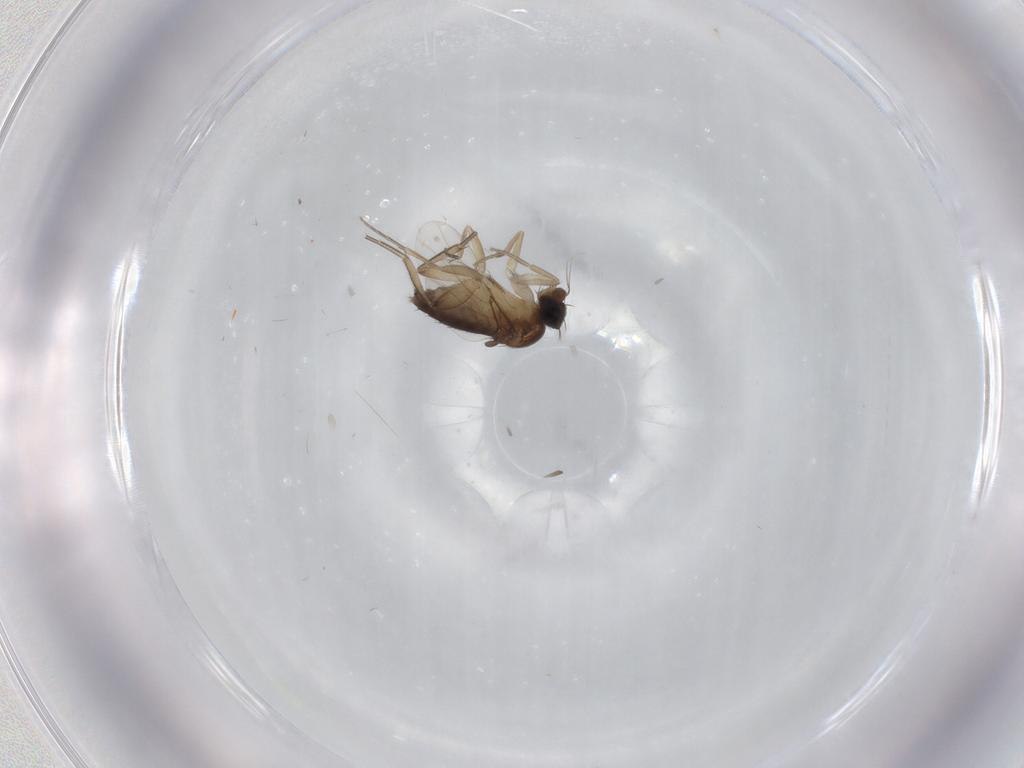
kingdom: Animalia
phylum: Arthropoda
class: Insecta
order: Diptera
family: Phoridae
